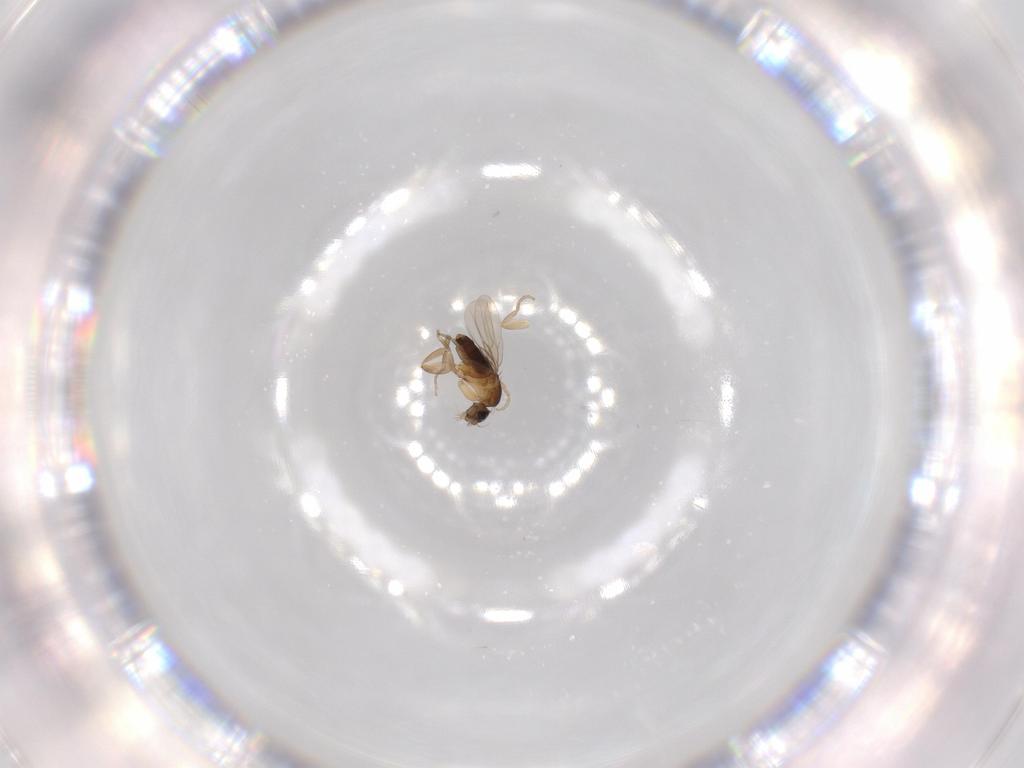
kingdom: Animalia
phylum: Arthropoda
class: Insecta
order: Diptera
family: Phoridae
